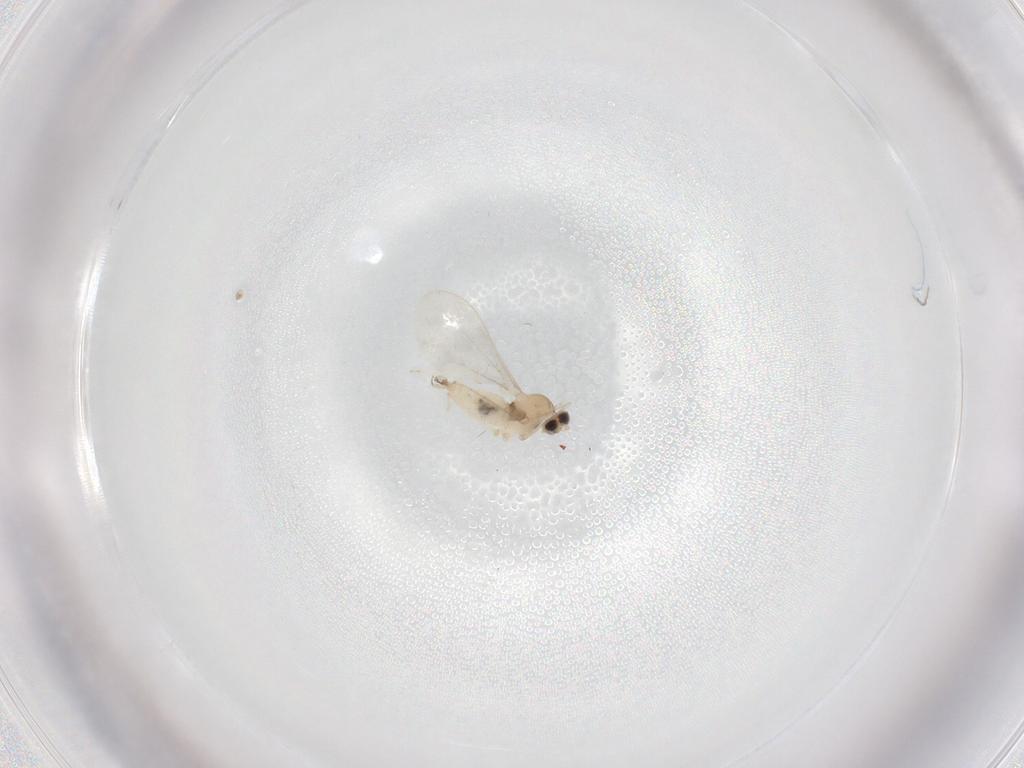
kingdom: Animalia
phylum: Arthropoda
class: Insecta
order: Diptera
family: Cecidomyiidae
